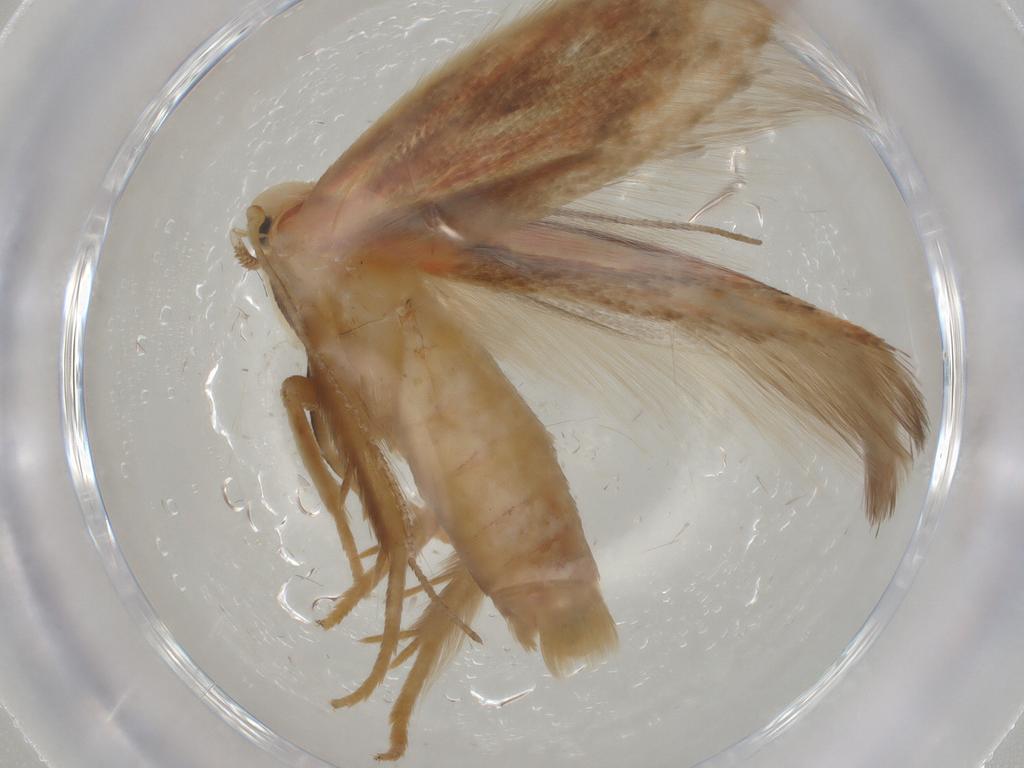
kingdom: Animalia
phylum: Arthropoda
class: Insecta
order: Lepidoptera
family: Geometridae
